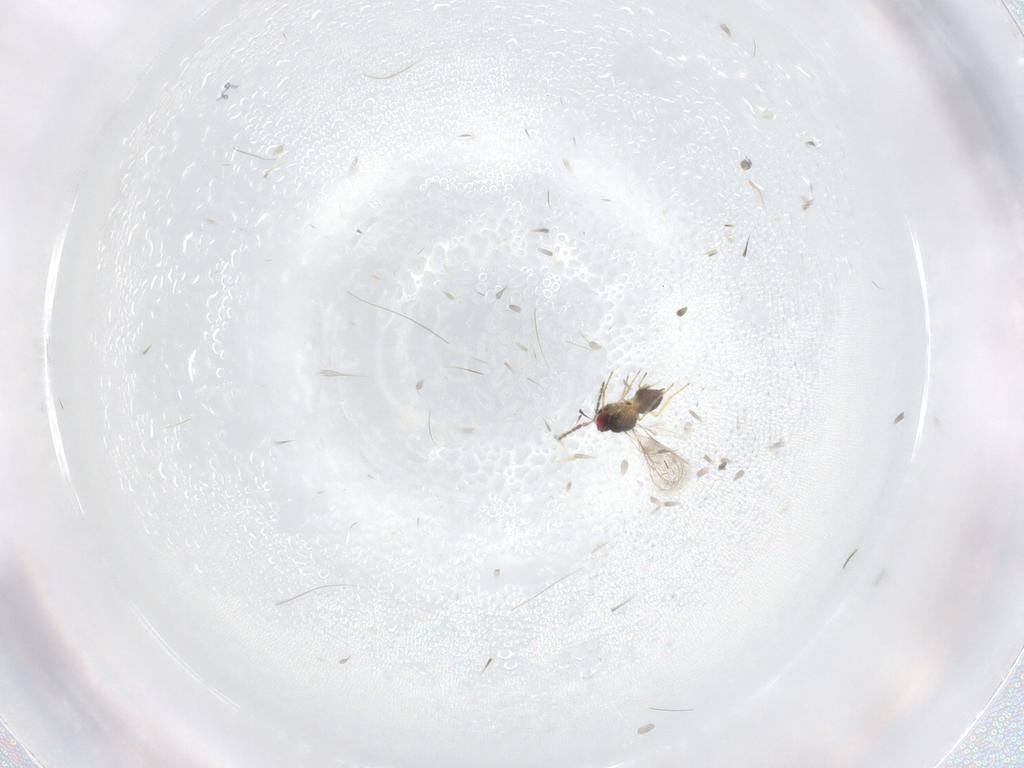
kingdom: Animalia
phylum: Arthropoda
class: Insecta
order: Hymenoptera
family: Eulophidae
